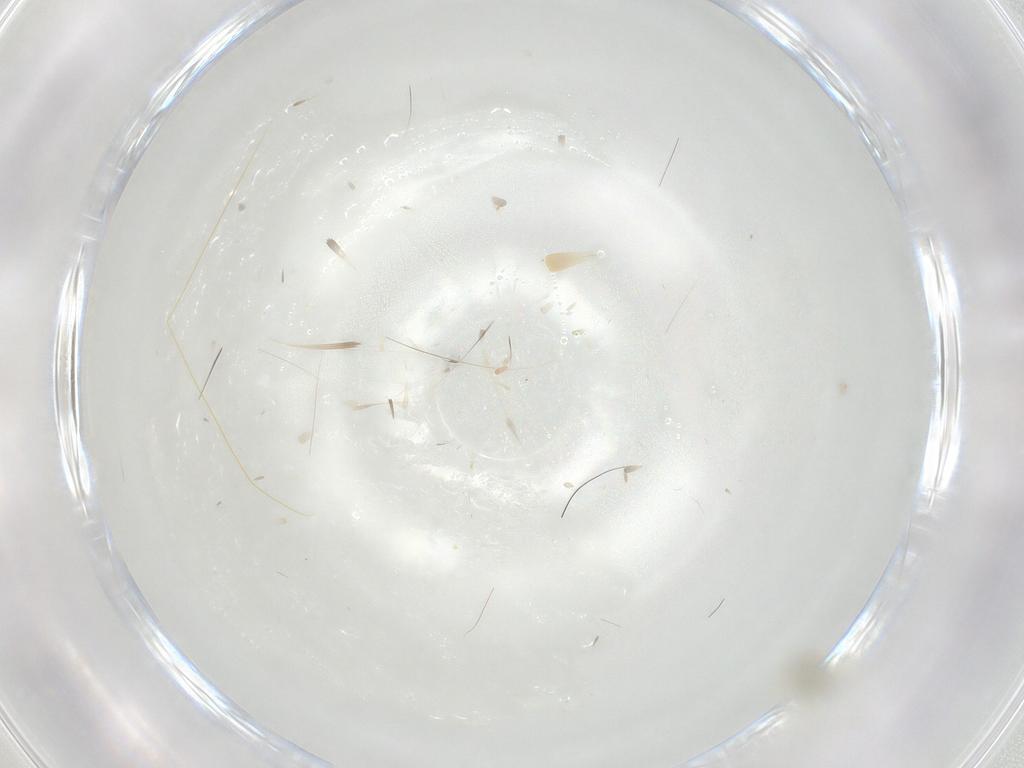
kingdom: Animalia
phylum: Arthropoda
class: Insecta
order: Diptera
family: Cecidomyiidae
